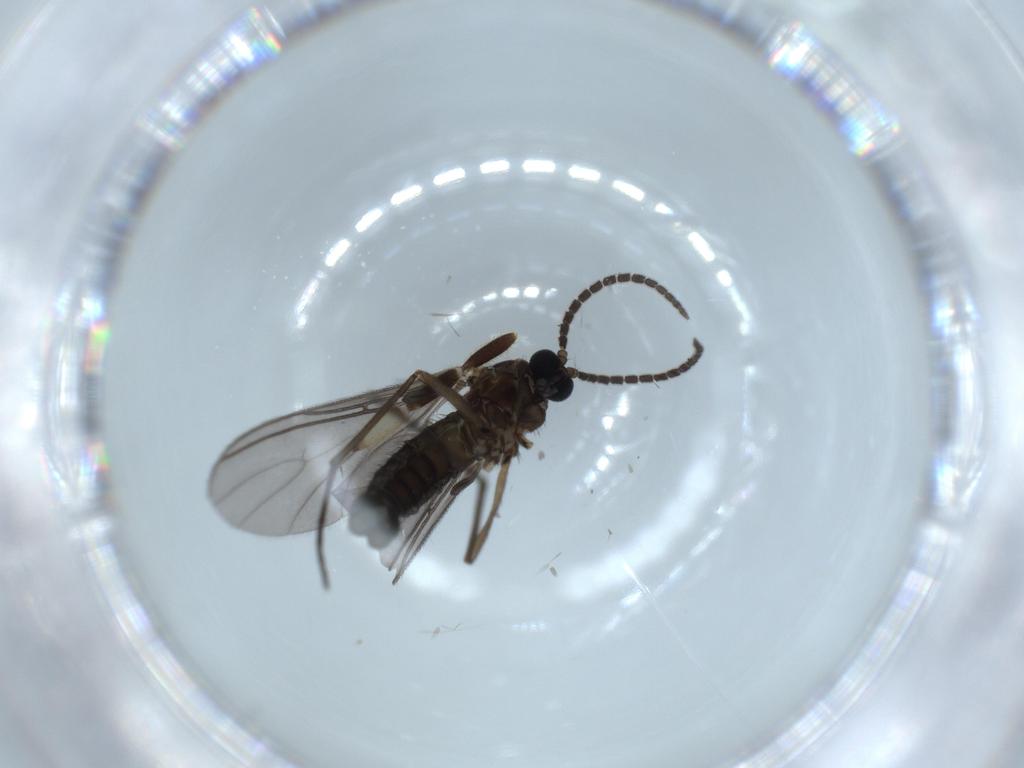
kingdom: Animalia
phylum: Arthropoda
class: Insecta
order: Diptera
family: Sciaridae
